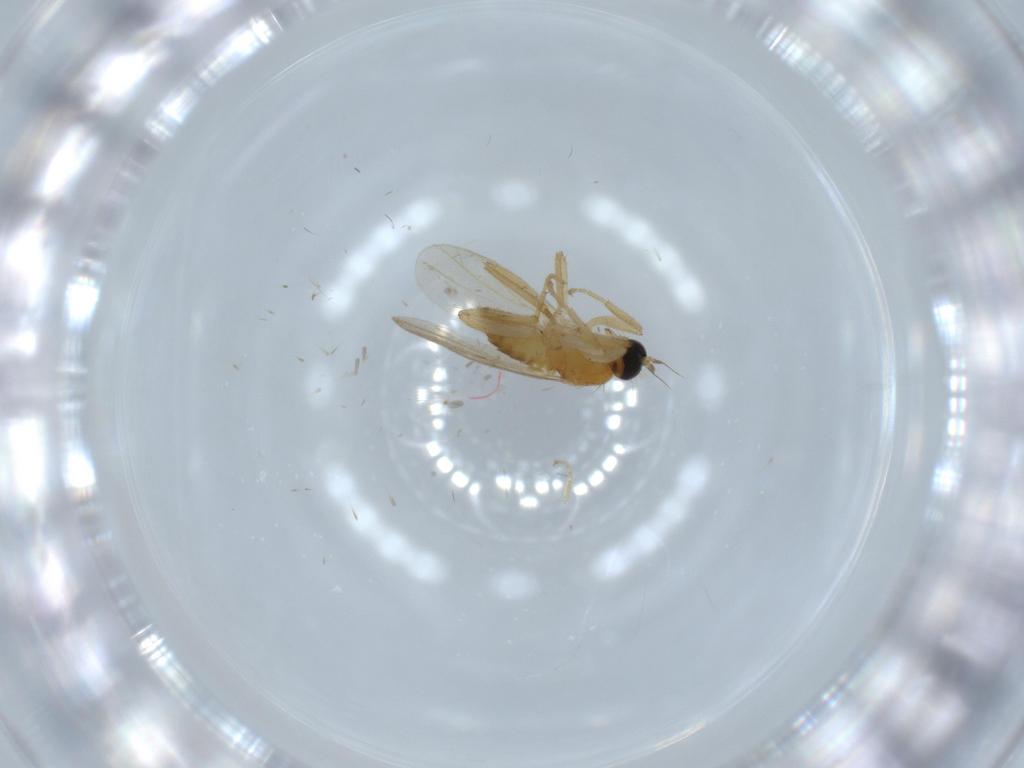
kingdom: Animalia
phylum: Arthropoda
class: Insecta
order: Diptera
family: Hybotidae
